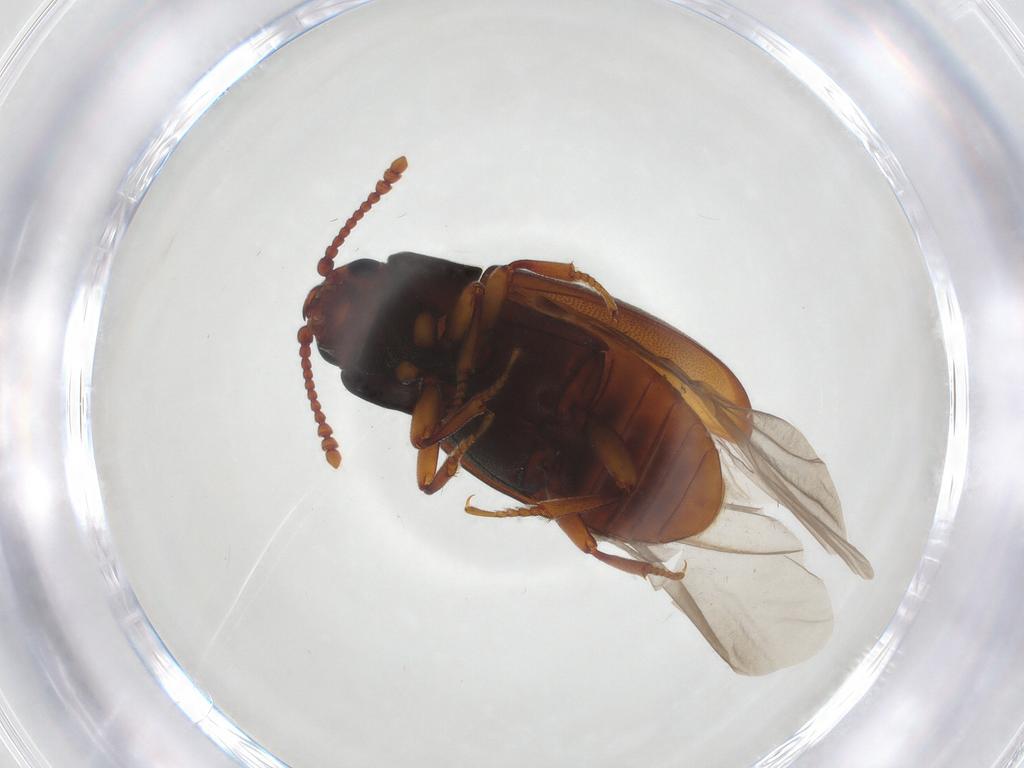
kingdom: Animalia
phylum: Arthropoda
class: Insecta
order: Coleoptera
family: Cryptophagidae
